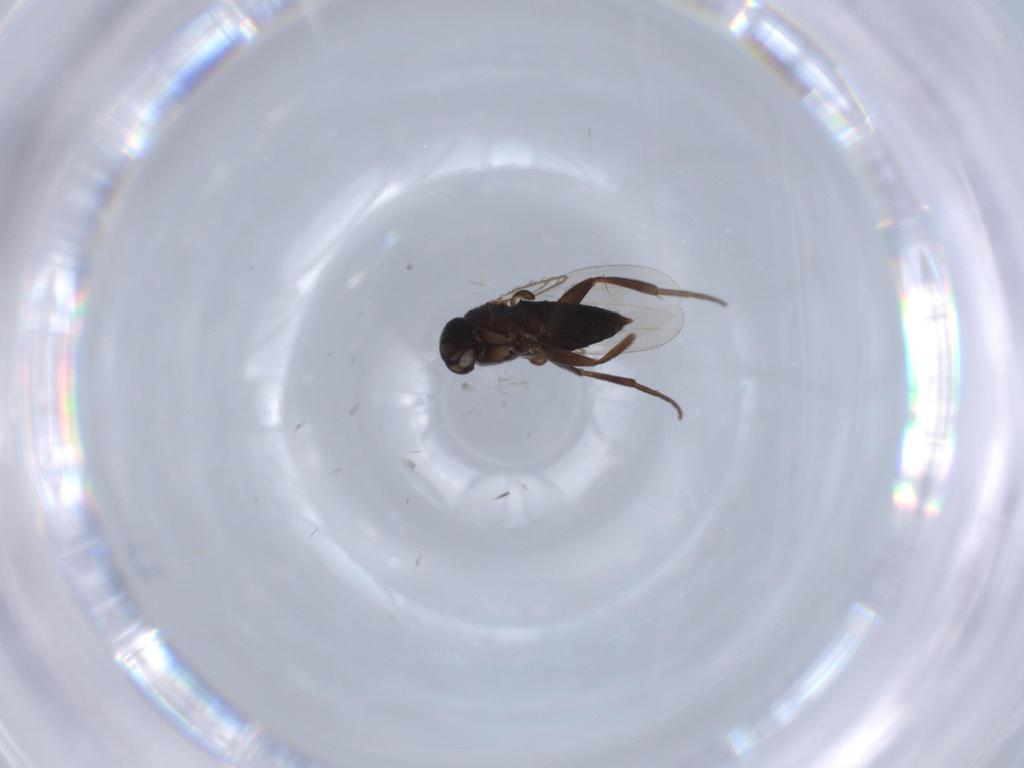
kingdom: Animalia
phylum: Arthropoda
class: Insecta
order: Diptera
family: Phoridae
